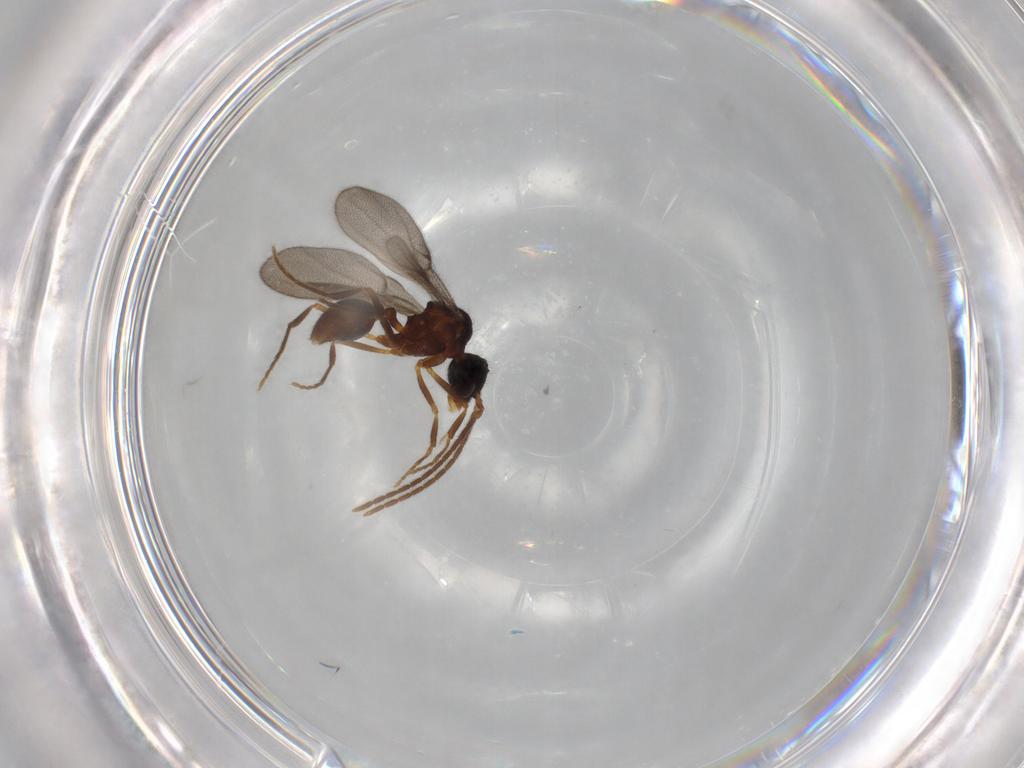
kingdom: Animalia
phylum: Arthropoda
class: Insecta
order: Hymenoptera
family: Formicidae
